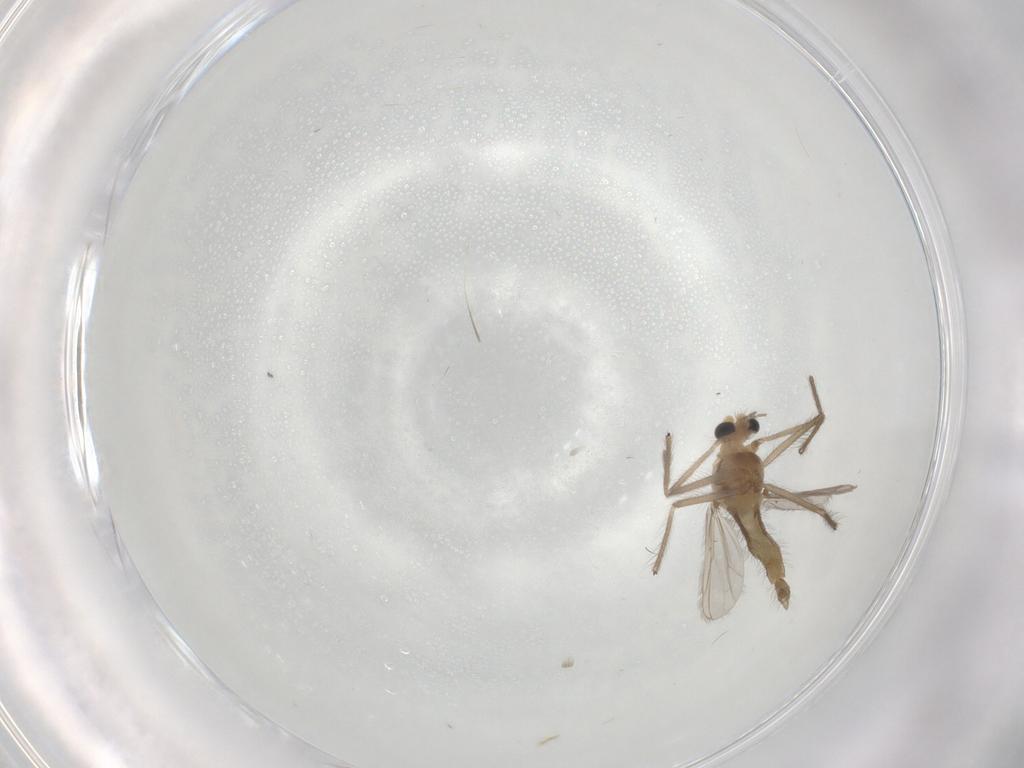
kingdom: Animalia
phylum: Arthropoda
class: Insecta
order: Diptera
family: Chironomidae
